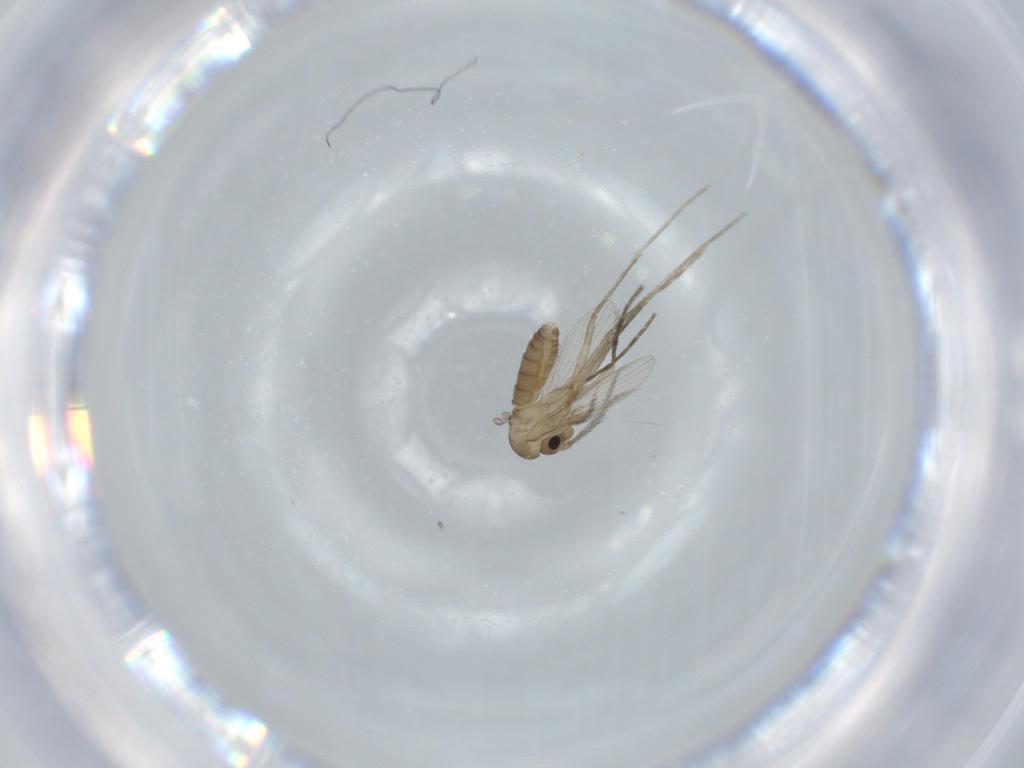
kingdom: Animalia
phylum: Arthropoda
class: Insecta
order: Diptera
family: Psychodidae
